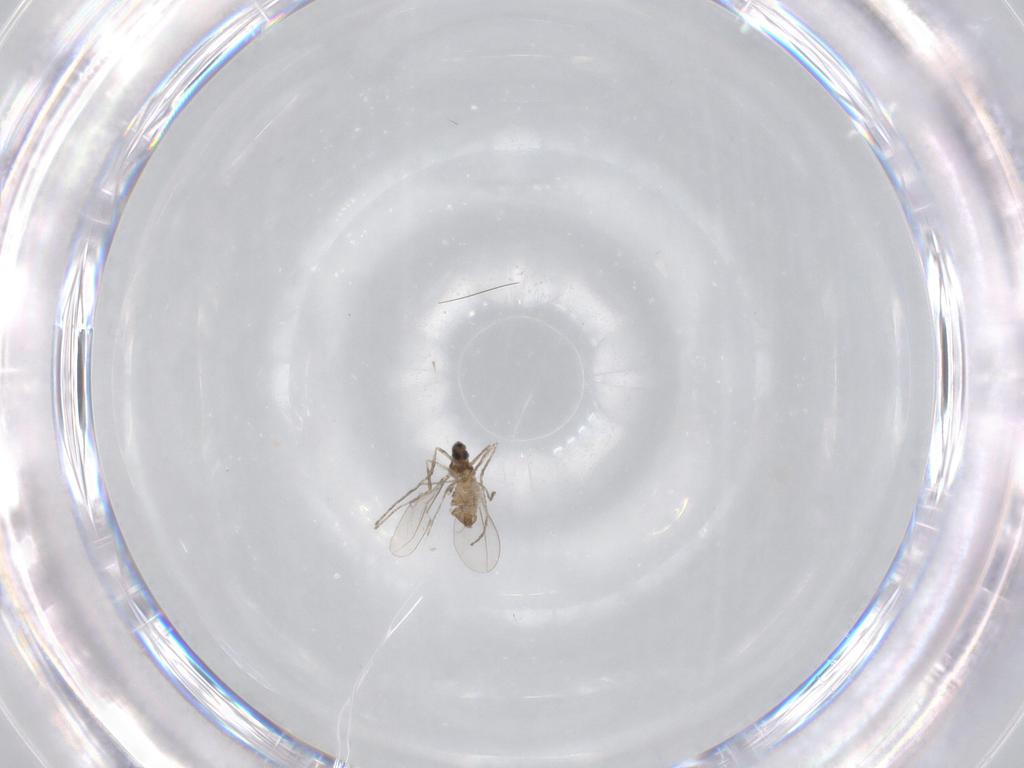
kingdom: Animalia
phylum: Arthropoda
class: Insecta
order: Diptera
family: Cecidomyiidae
